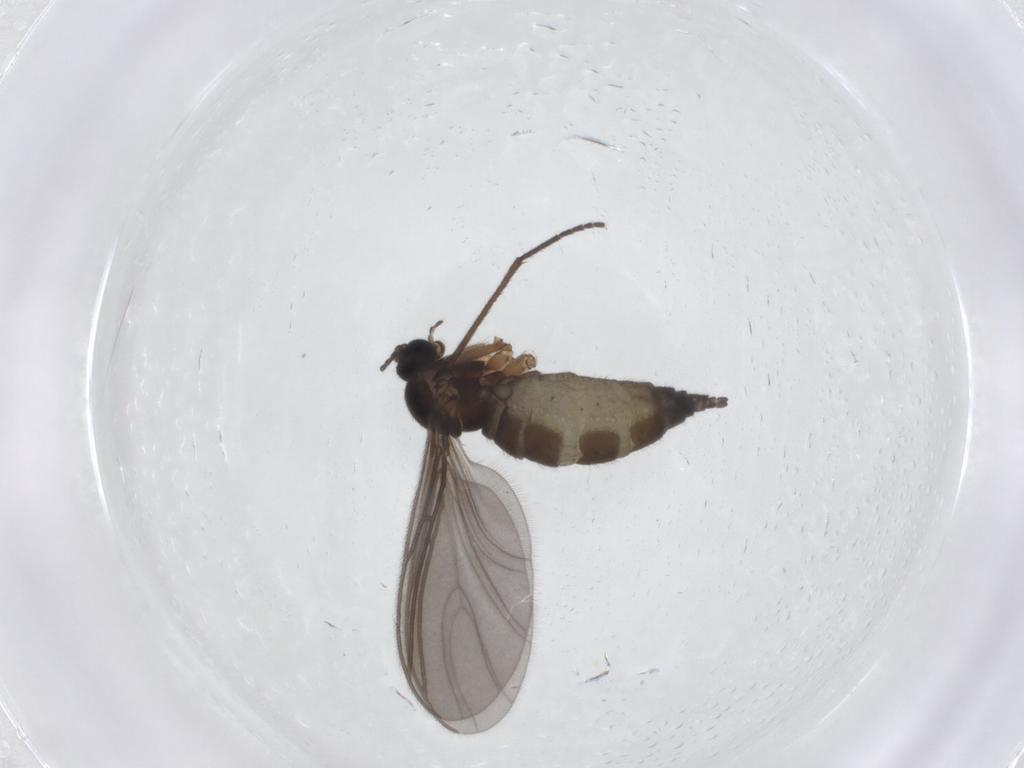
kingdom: Animalia
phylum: Arthropoda
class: Insecta
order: Diptera
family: Sciaridae
